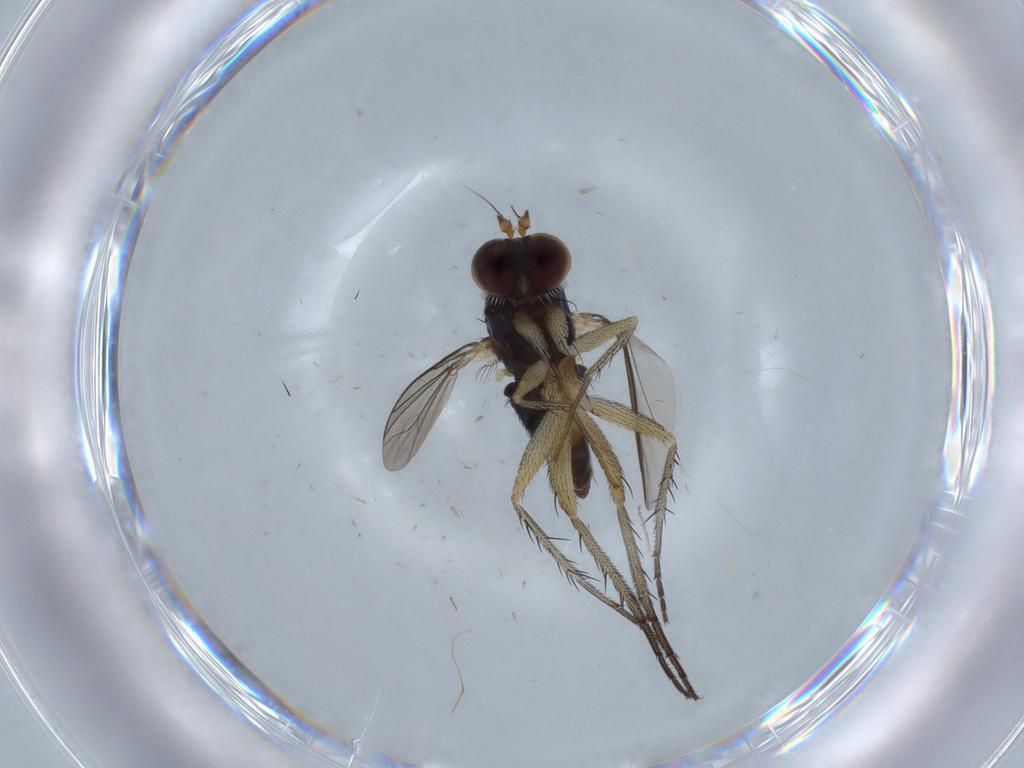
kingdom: Animalia
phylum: Arthropoda
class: Insecta
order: Diptera
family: Dolichopodidae
